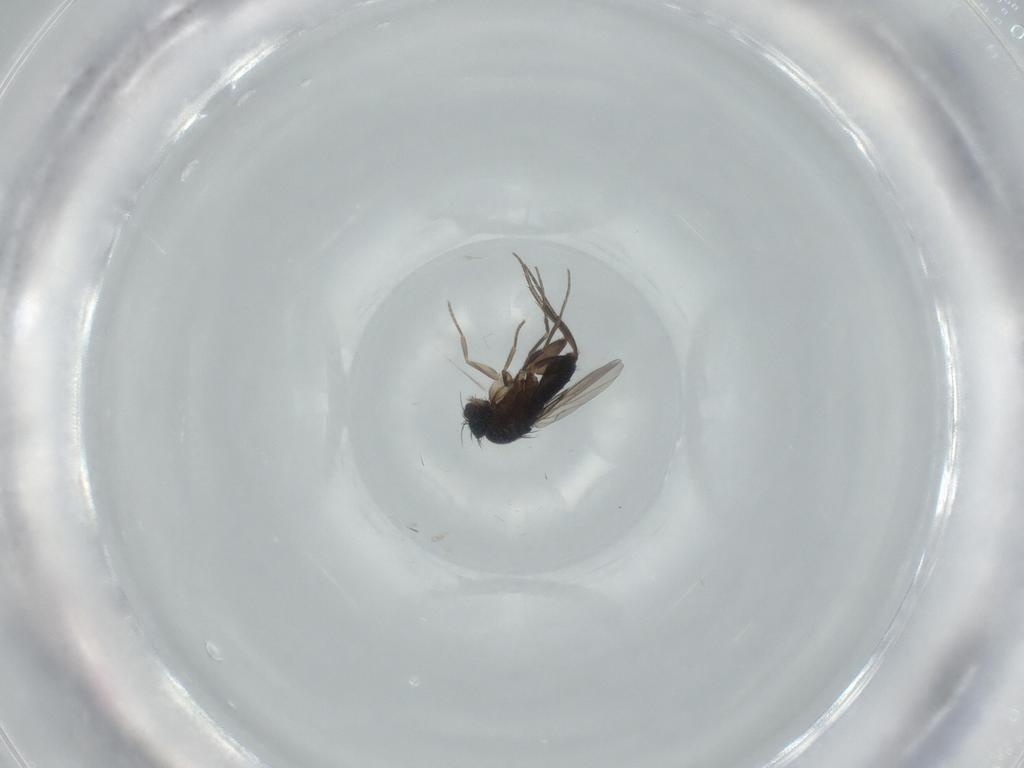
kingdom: Animalia
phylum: Arthropoda
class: Insecta
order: Diptera
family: Phoridae
